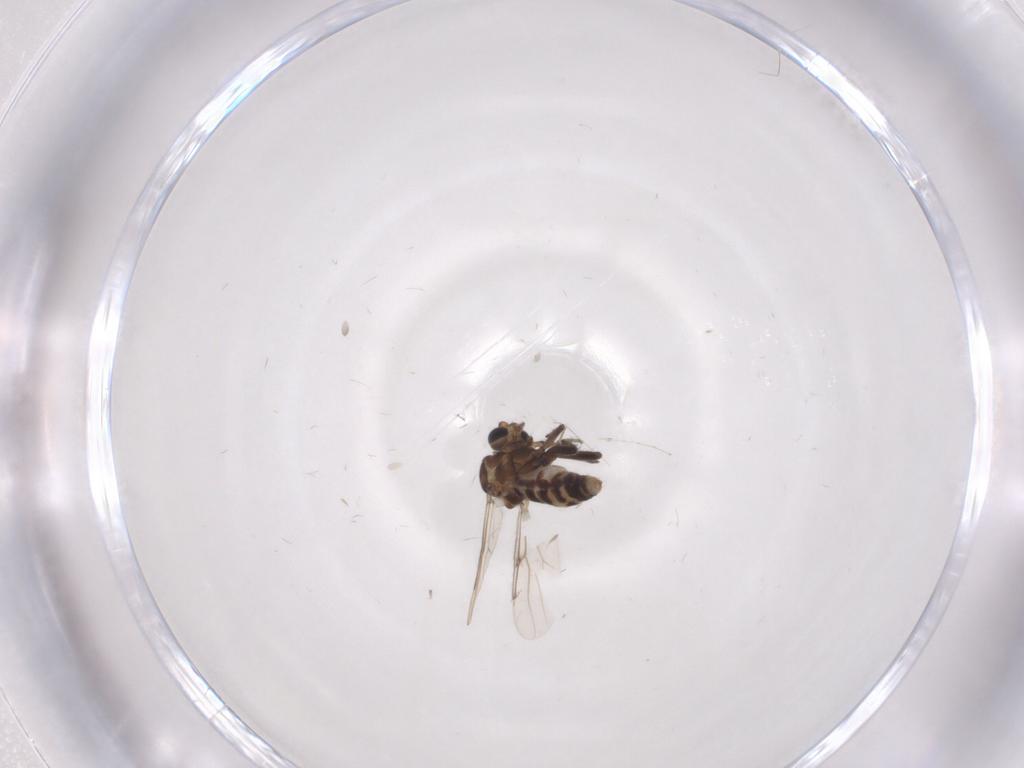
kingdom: Animalia
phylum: Arthropoda
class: Insecta
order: Diptera
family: Ceratopogonidae
